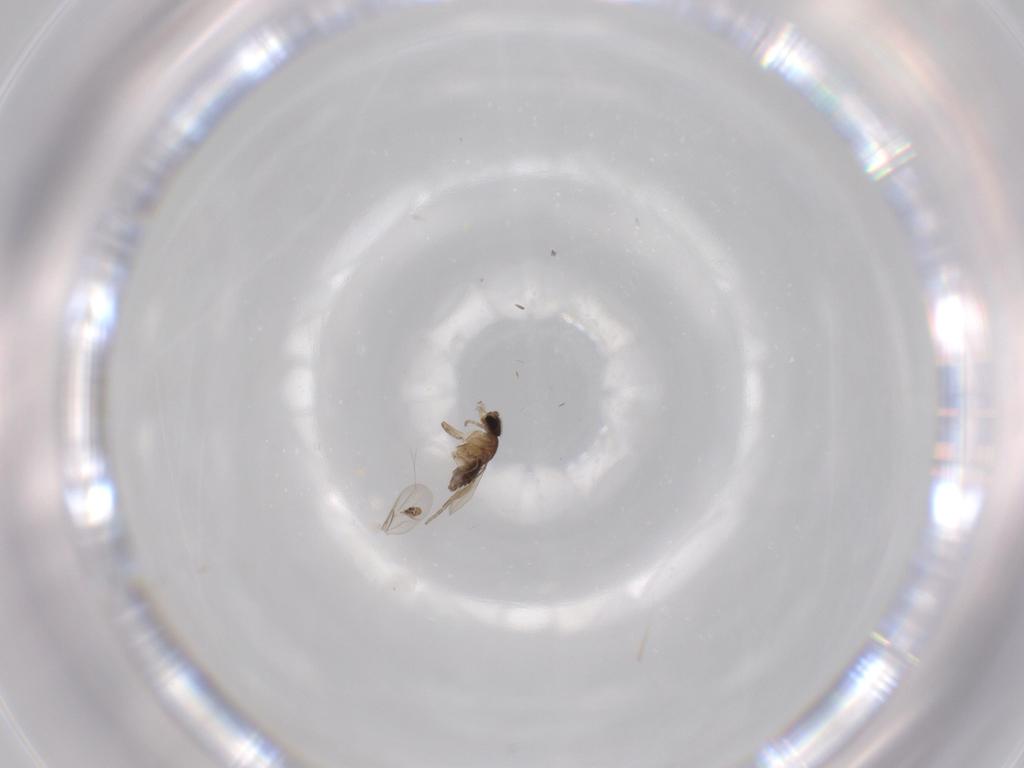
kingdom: Animalia
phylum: Arthropoda
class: Insecta
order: Diptera
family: Phoridae
